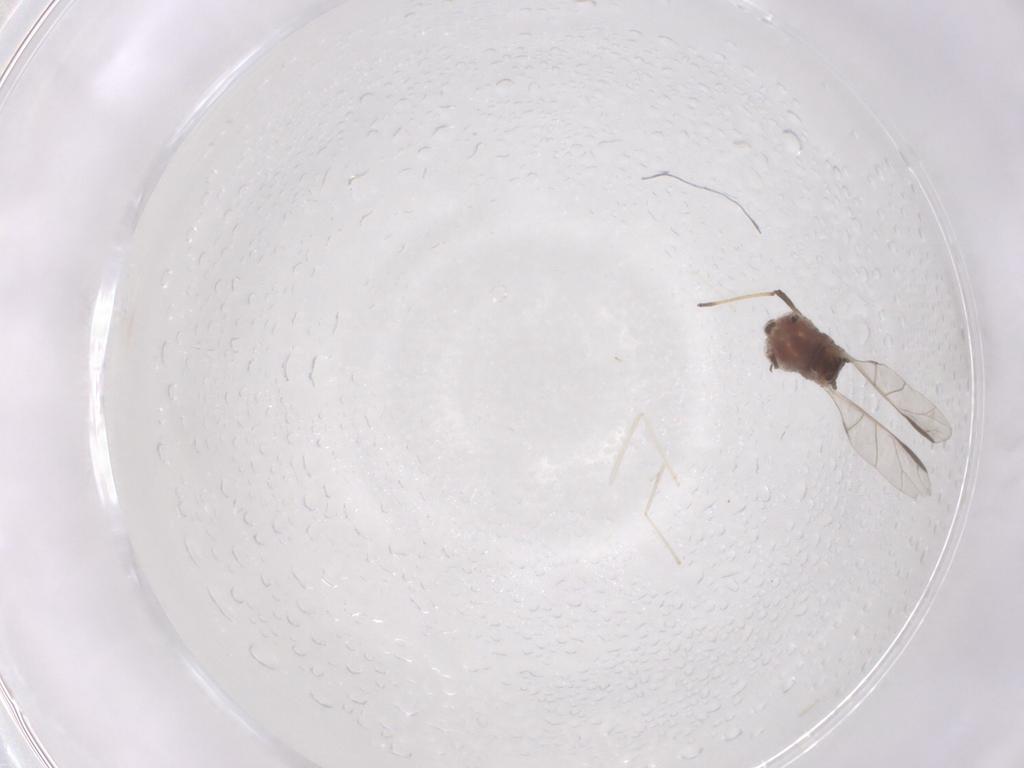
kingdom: Animalia
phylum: Arthropoda
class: Insecta
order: Hemiptera
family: Aphididae
